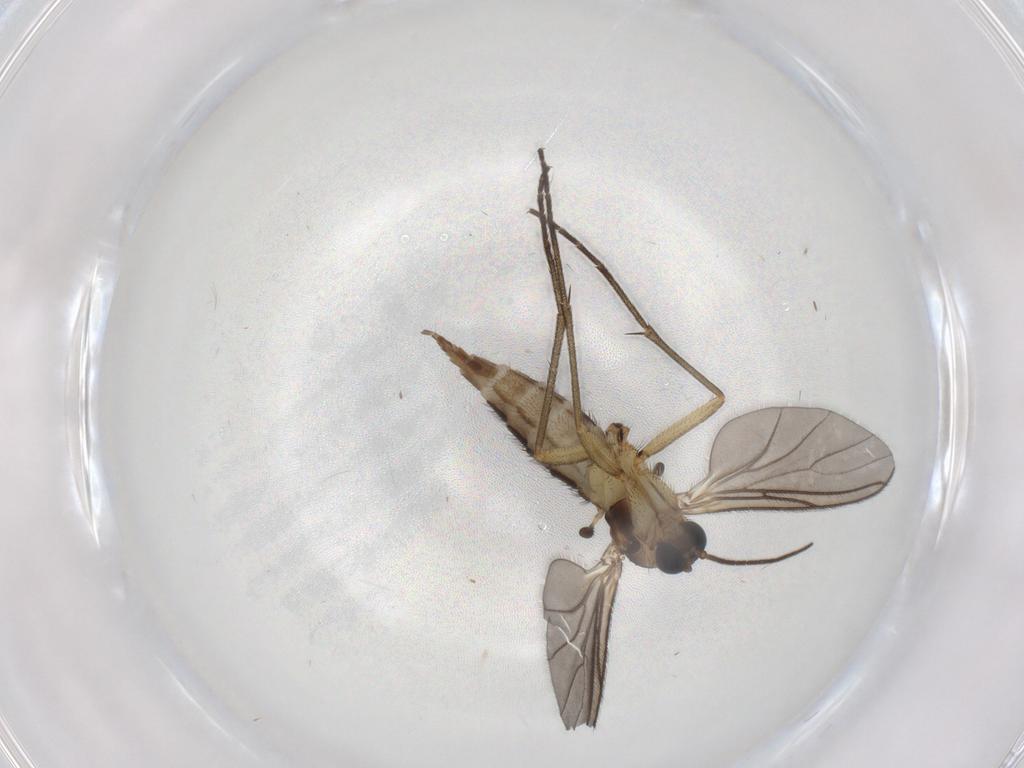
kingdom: Animalia
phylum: Arthropoda
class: Insecta
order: Diptera
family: Sciaridae
